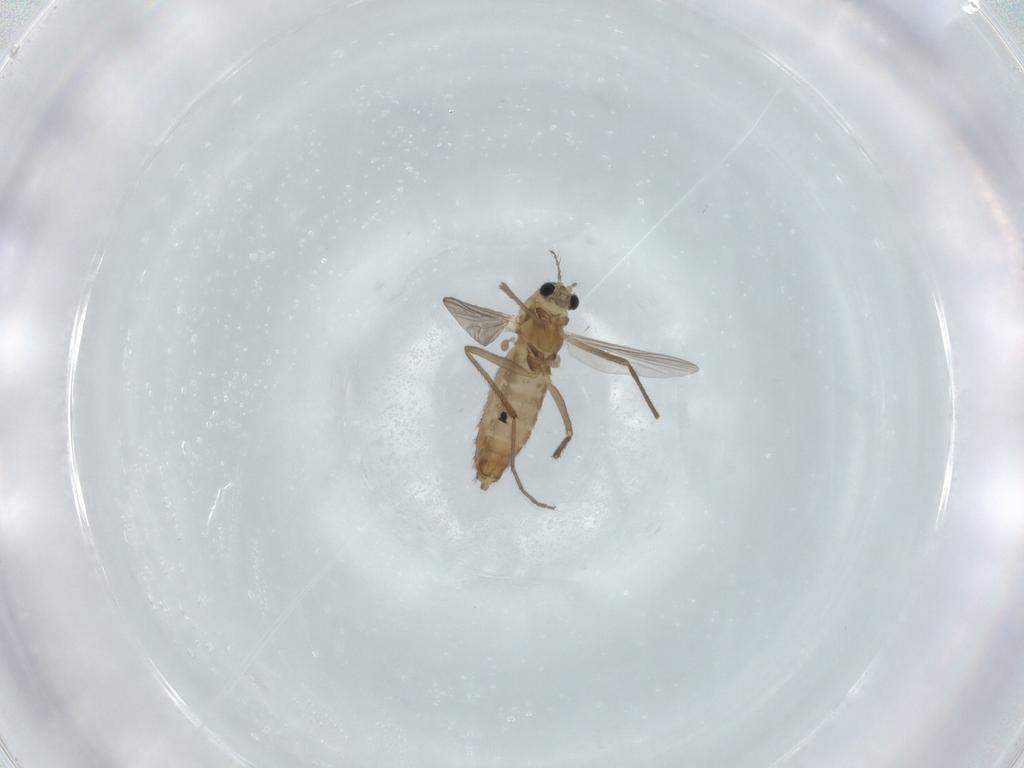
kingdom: Animalia
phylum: Arthropoda
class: Insecta
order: Diptera
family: Chironomidae
